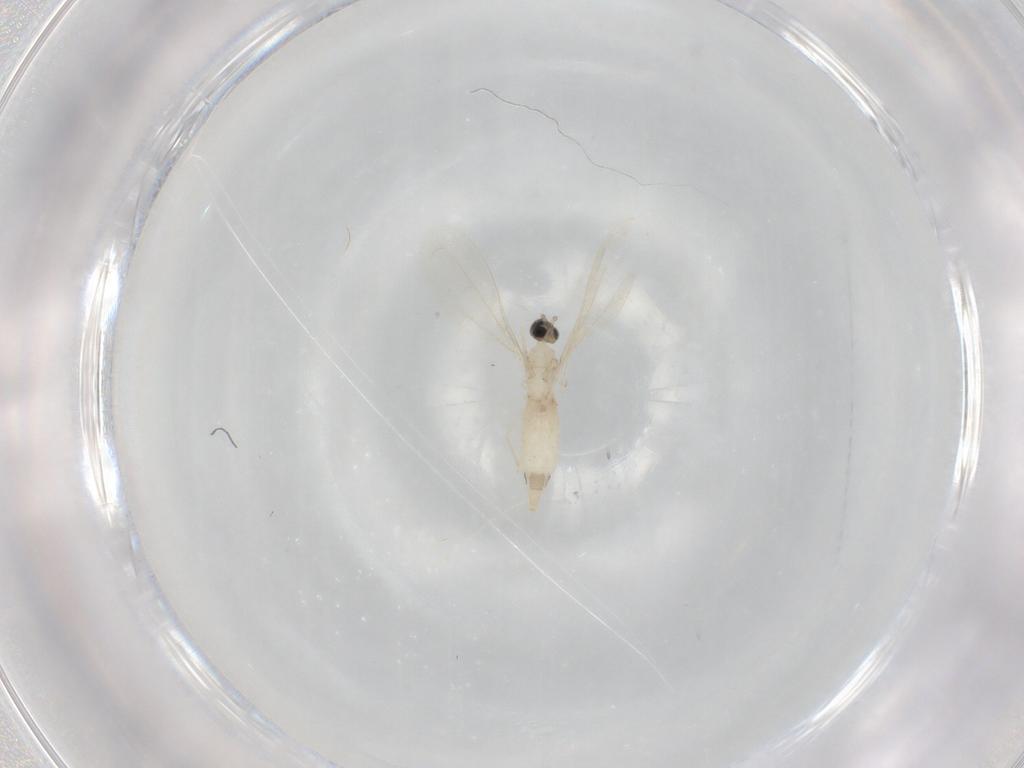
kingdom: Animalia
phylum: Arthropoda
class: Insecta
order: Diptera
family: Cecidomyiidae
